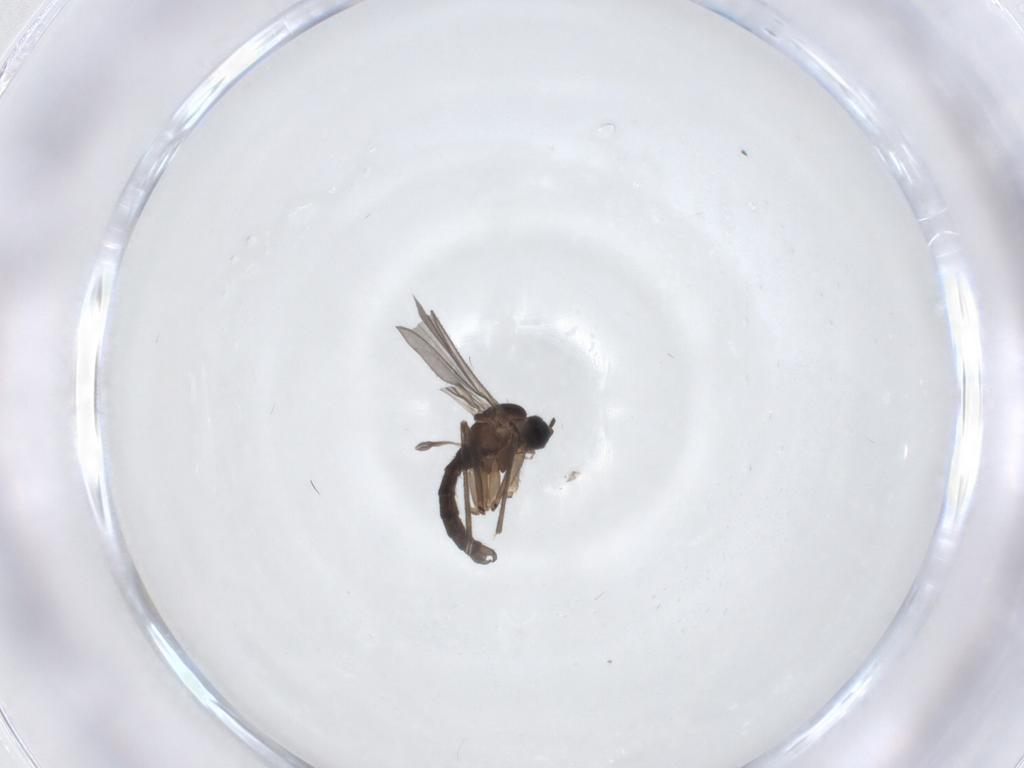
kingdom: Animalia
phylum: Arthropoda
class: Insecta
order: Diptera
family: Sciaridae
